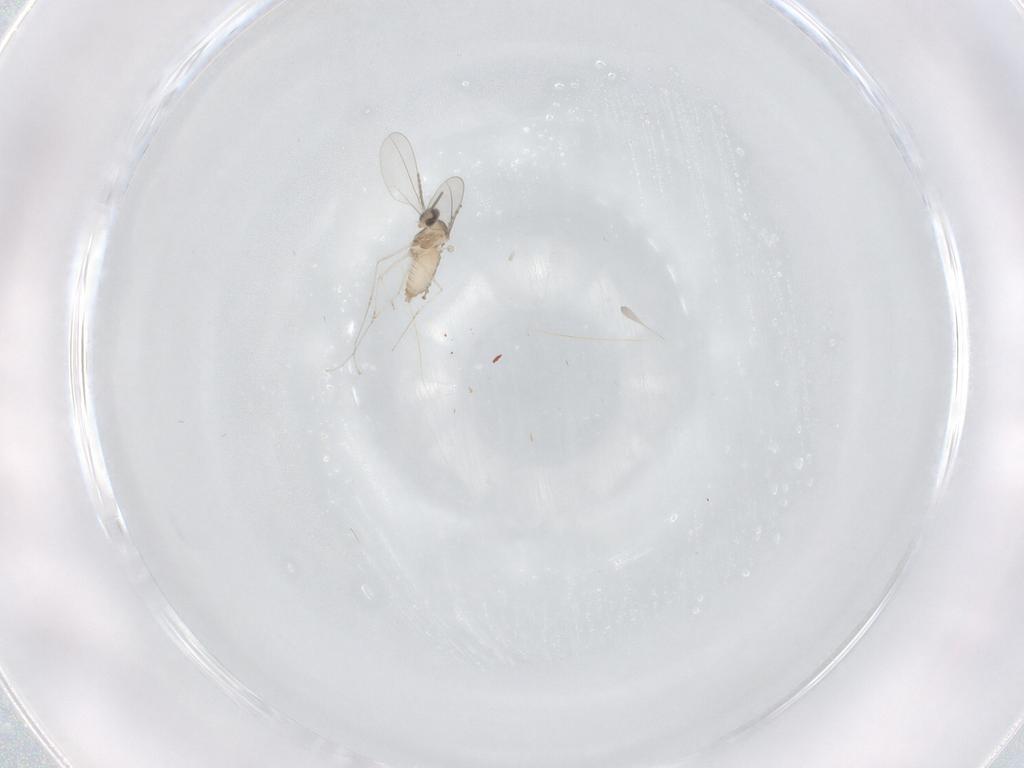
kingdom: Animalia
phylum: Arthropoda
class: Insecta
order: Diptera
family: Cecidomyiidae
